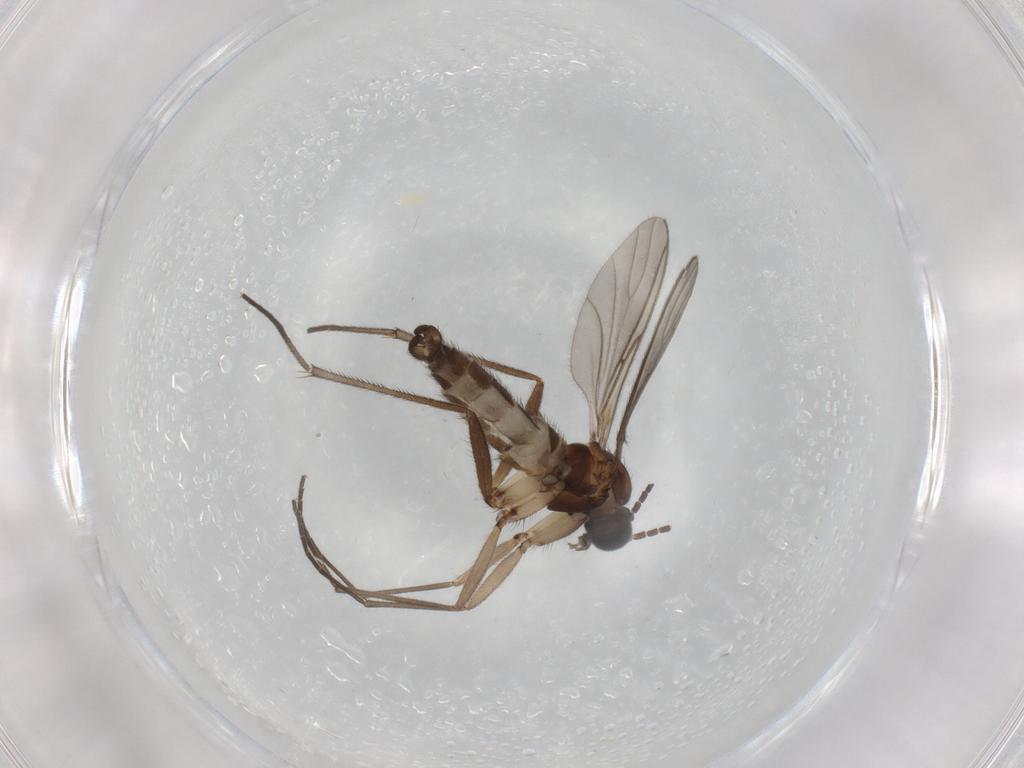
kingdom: Animalia
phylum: Arthropoda
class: Insecta
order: Diptera
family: Sciaridae
